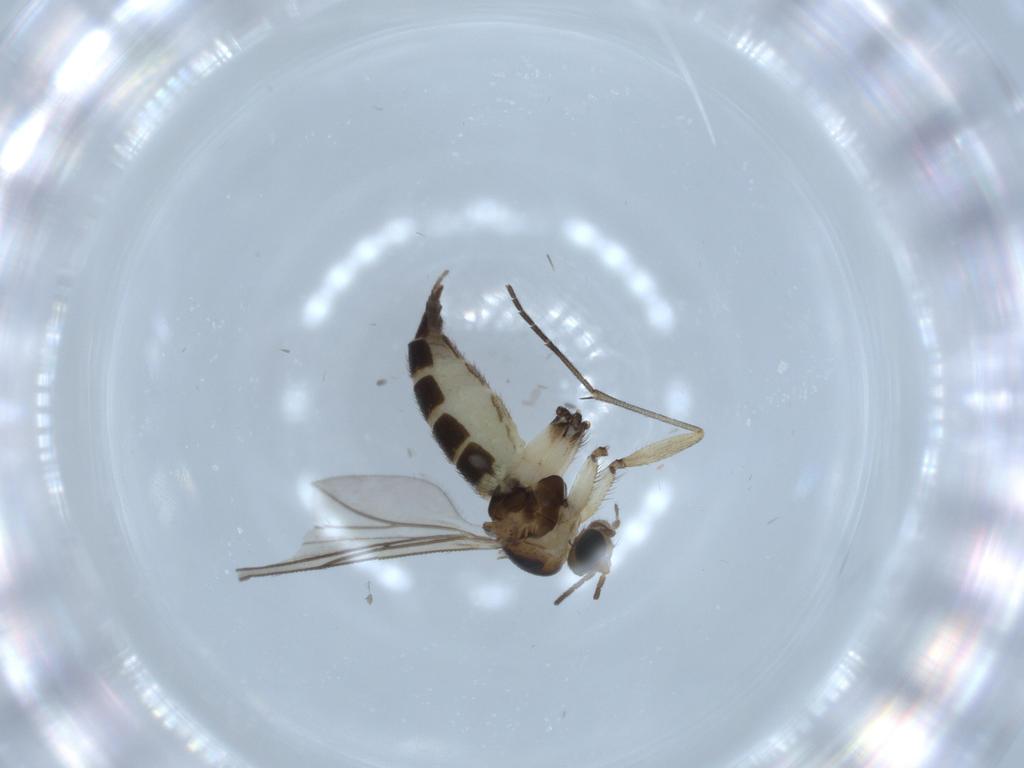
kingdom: Animalia
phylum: Arthropoda
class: Insecta
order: Diptera
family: Sciaridae
